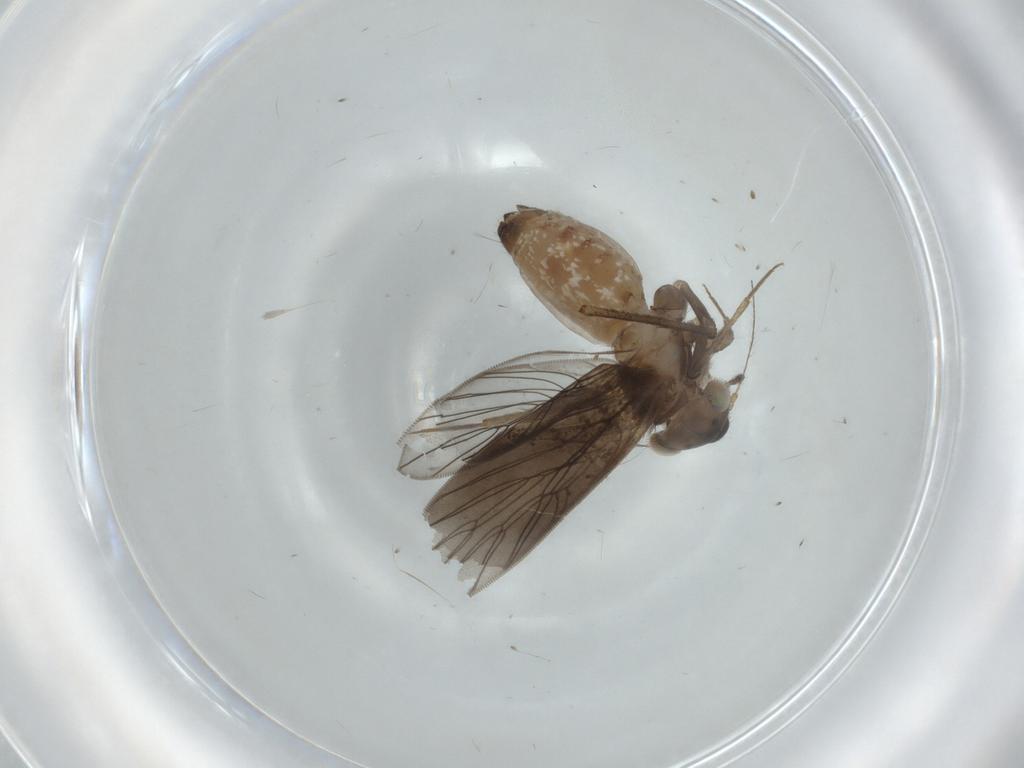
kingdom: Animalia
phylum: Arthropoda
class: Insecta
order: Psocodea
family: Lepidopsocidae
